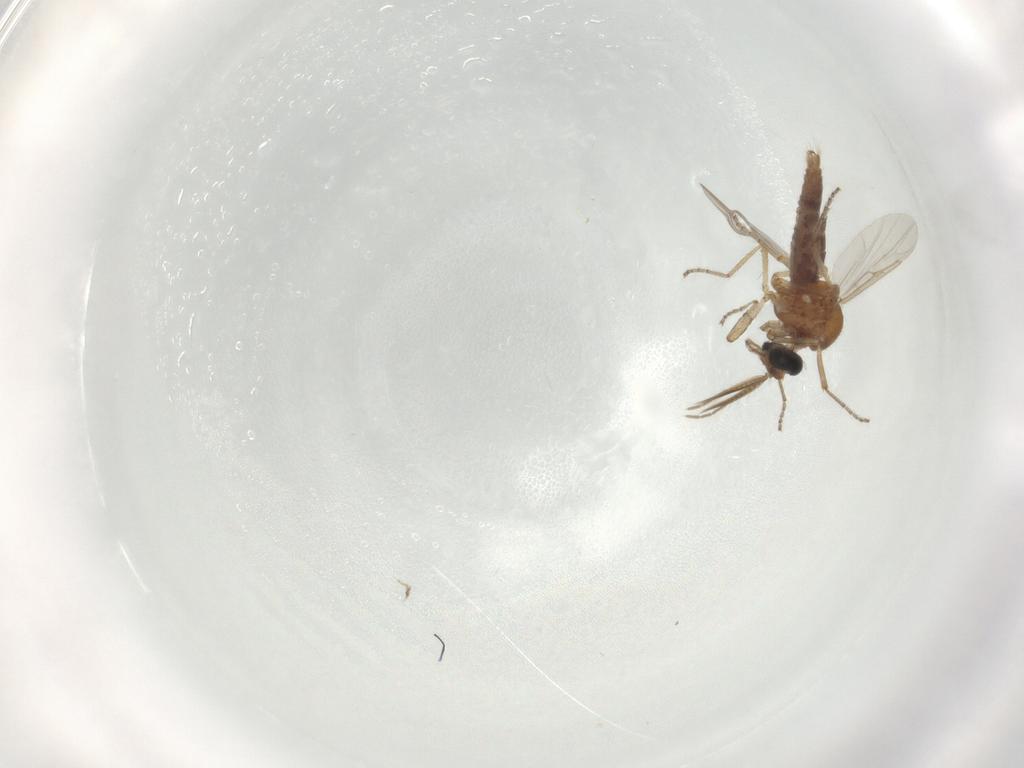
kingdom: Animalia
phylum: Arthropoda
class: Insecta
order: Diptera
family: Ceratopogonidae
